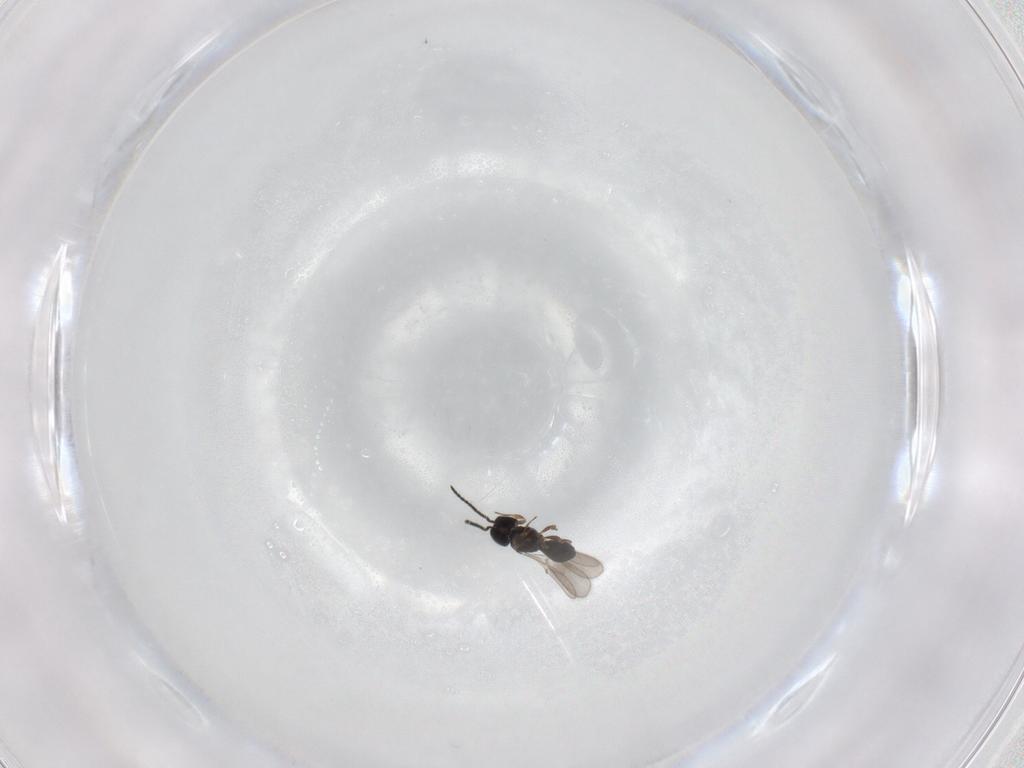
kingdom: Animalia
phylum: Arthropoda
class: Insecta
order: Hymenoptera
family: Scelionidae
